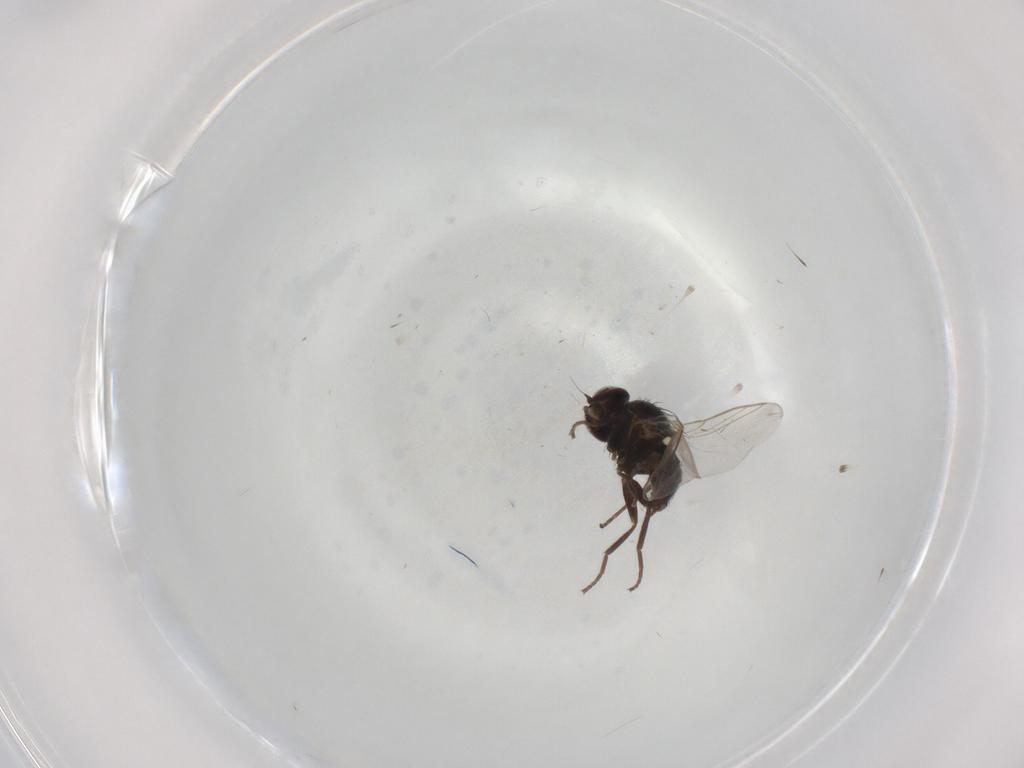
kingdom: Animalia
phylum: Arthropoda
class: Insecta
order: Diptera
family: Agromyzidae
